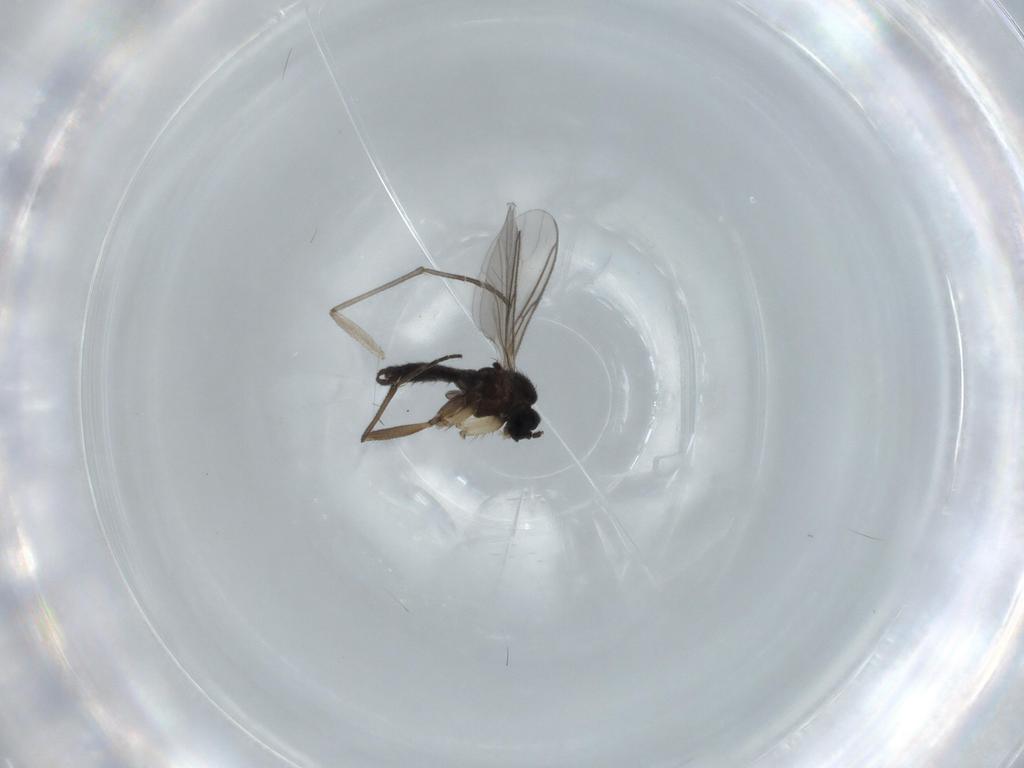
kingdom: Animalia
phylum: Arthropoda
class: Insecta
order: Diptera
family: Sciaridae
